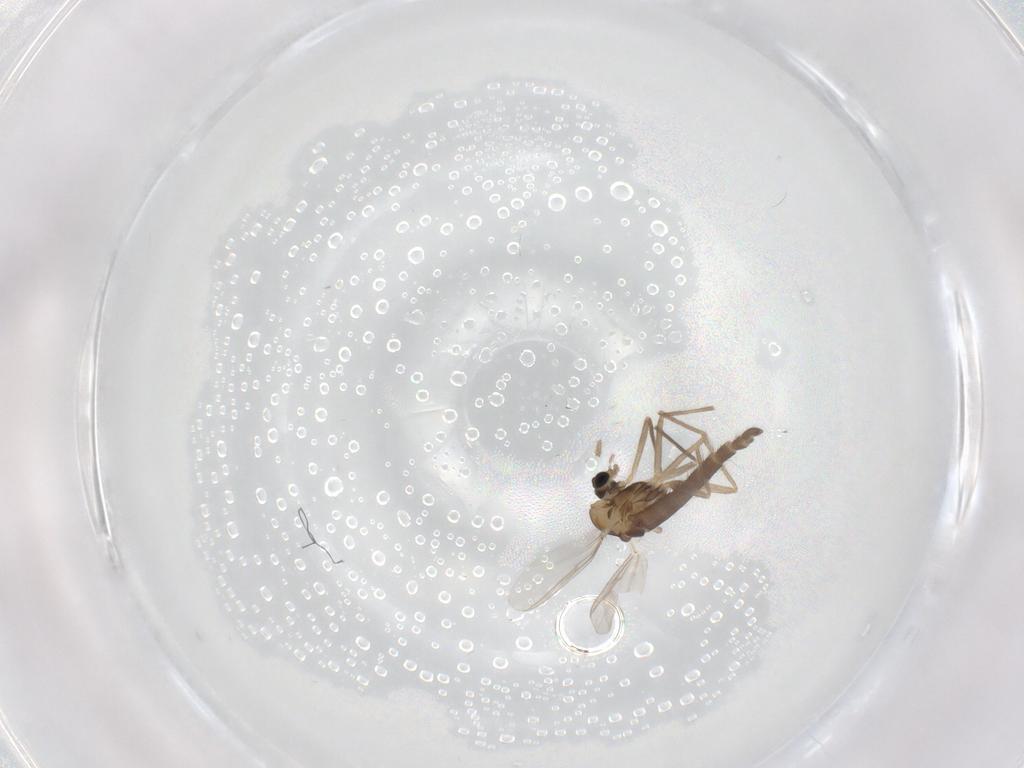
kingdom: Animalia
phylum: Arthropoda
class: Insecta
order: Diptera
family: Chironomidae
